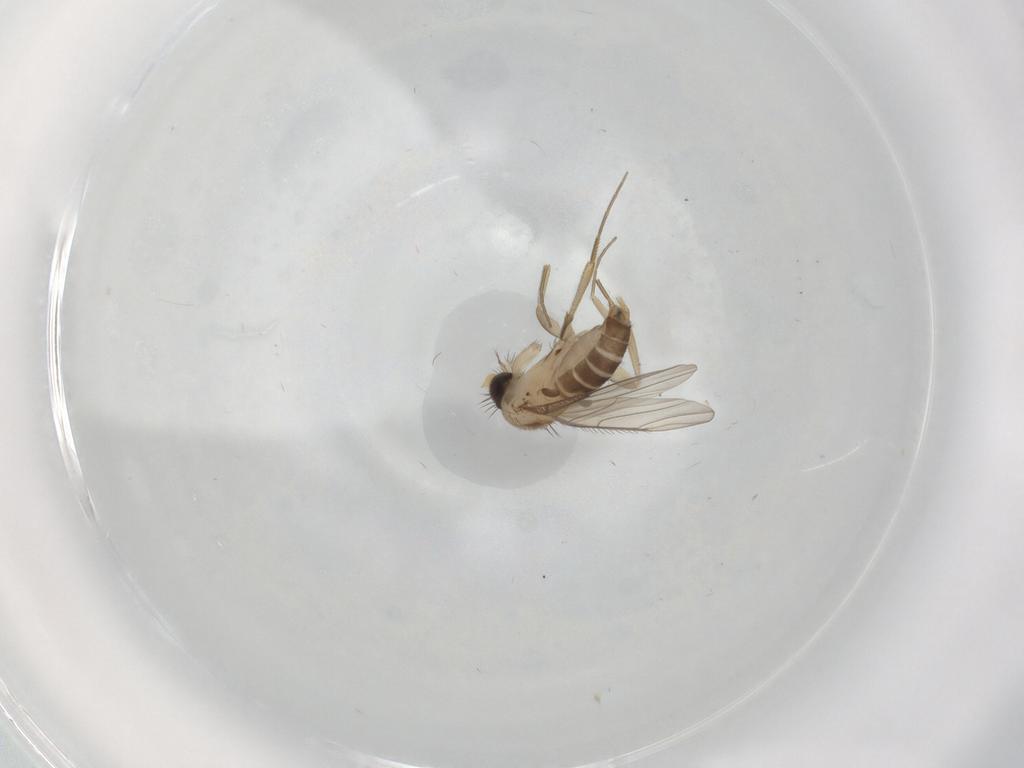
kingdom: Animalia
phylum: Arthropoda
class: Insecta
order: Diptera
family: Phoridae
